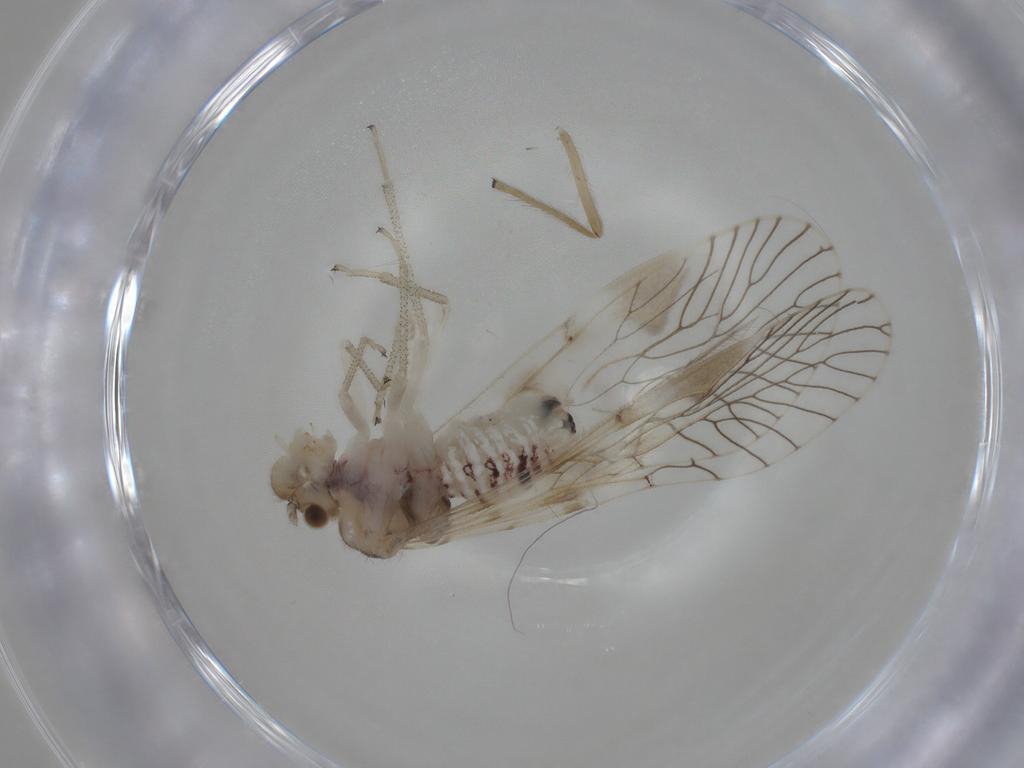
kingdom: Animalia
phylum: Arthropoda
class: Insecta
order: Psocodea
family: Amphipsocidae
